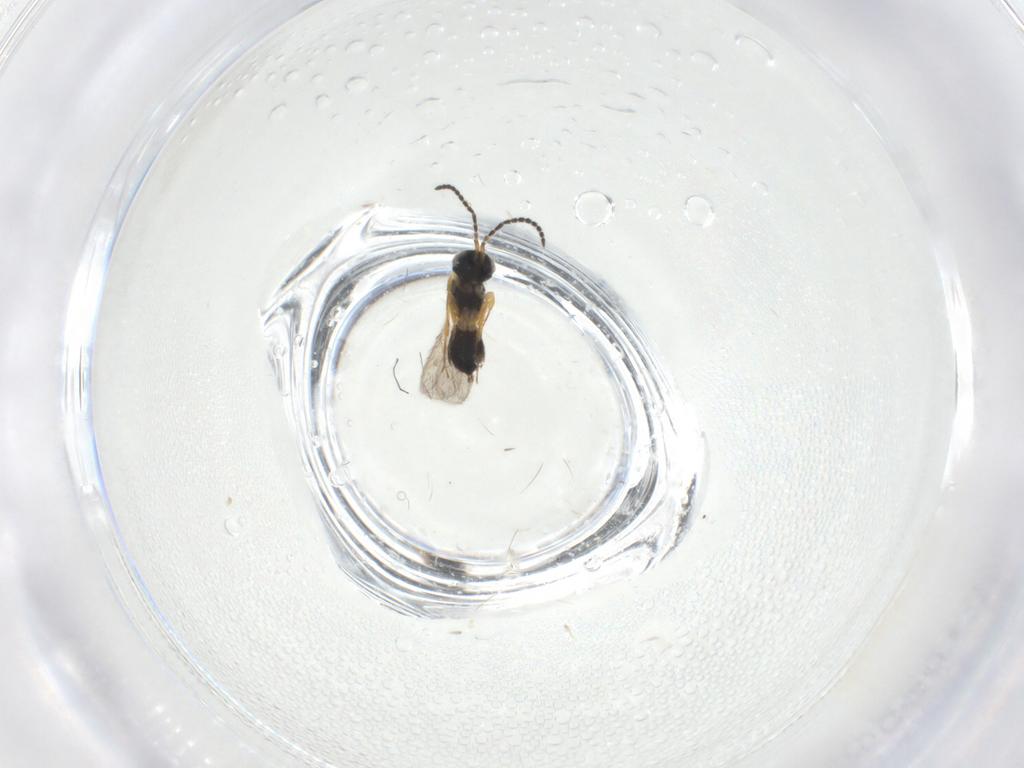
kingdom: Animalia
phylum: Arthropoda
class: Insecta
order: Hymenoptera
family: Scelionidae
